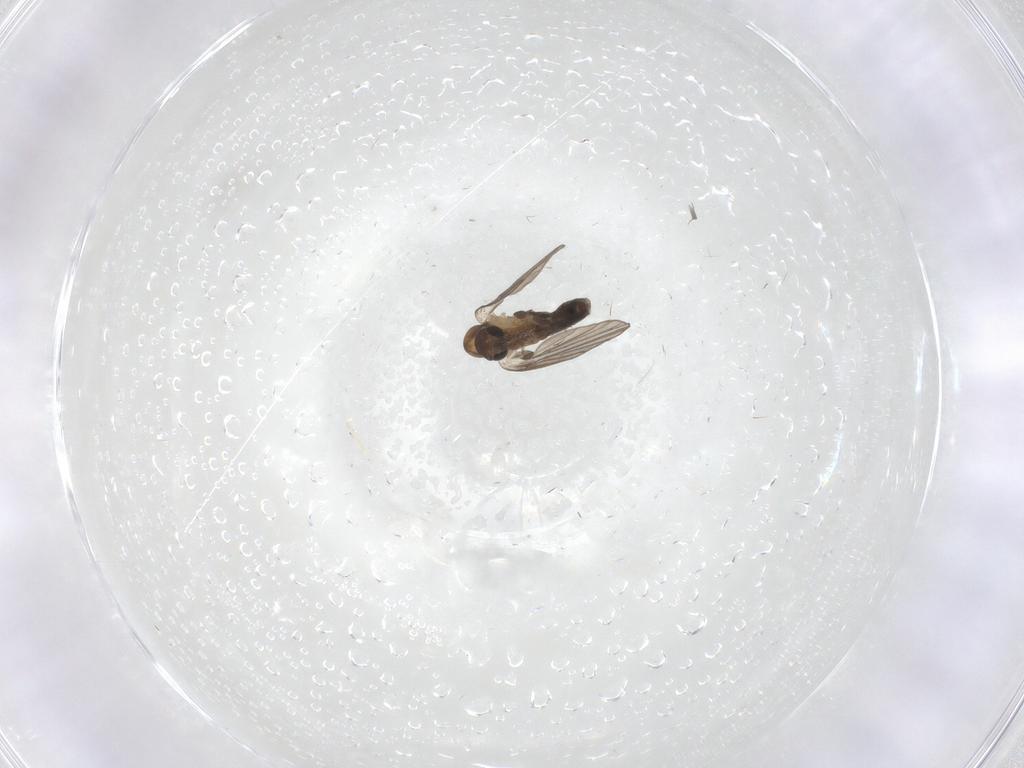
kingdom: Animalia
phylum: Arthropoda
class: Insecta
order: Diptera
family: Psychodidae
